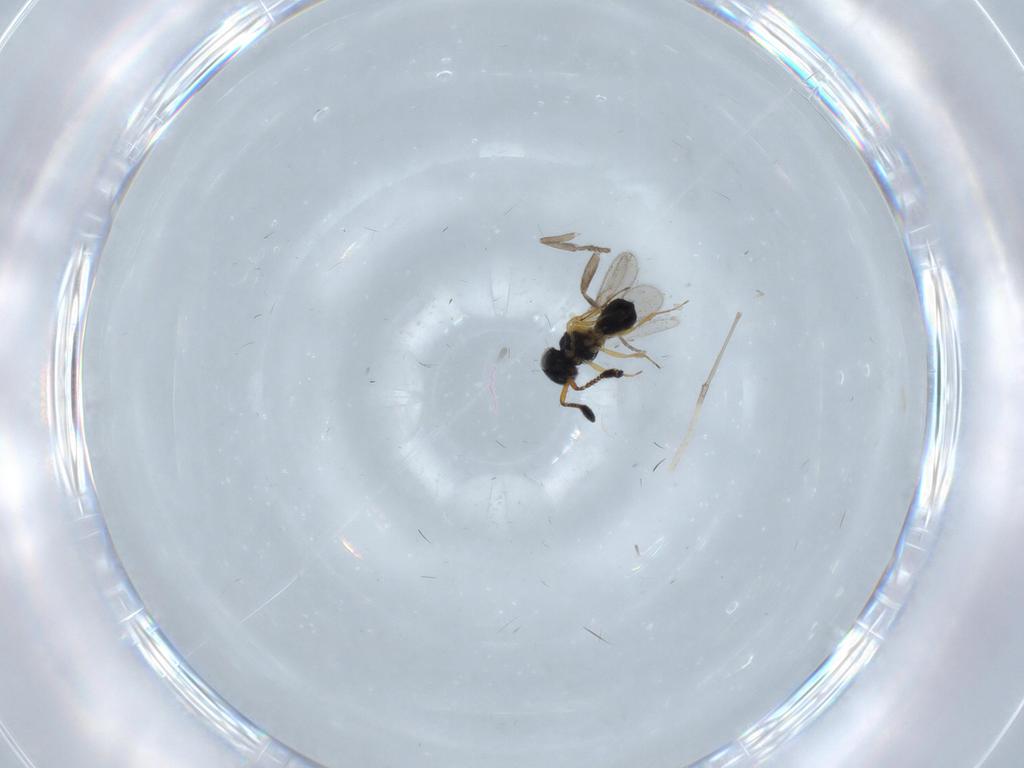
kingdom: Animalia
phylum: Arthropoda
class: Insecta
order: Hymenoptera
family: Scelionidae
